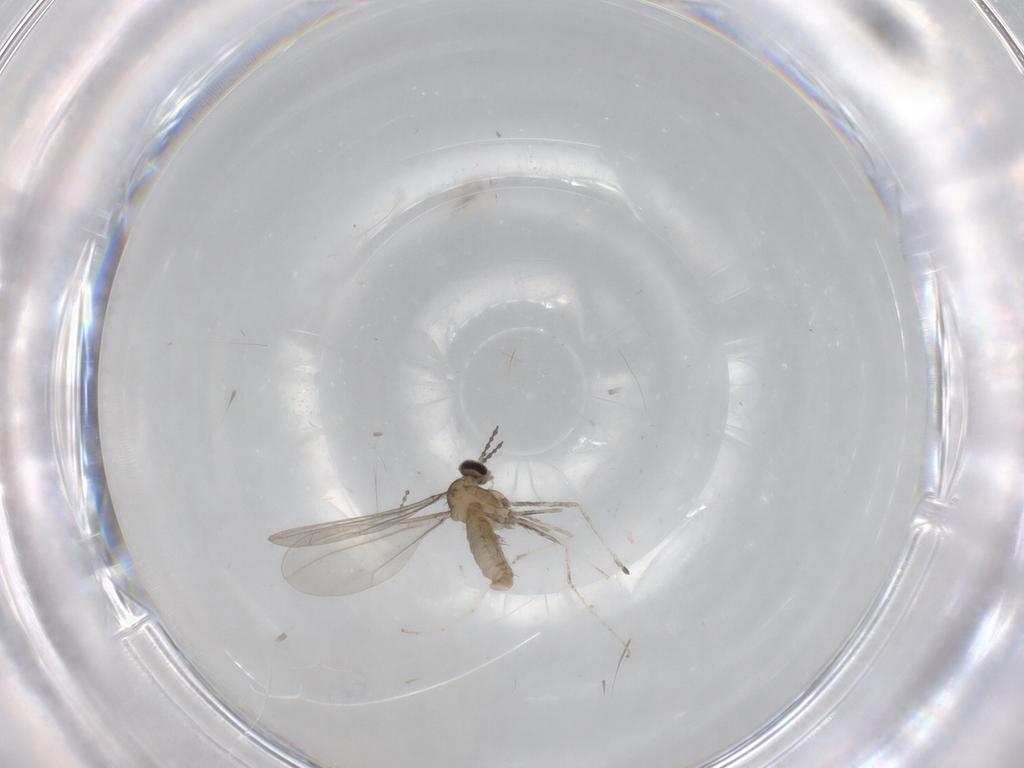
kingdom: Animalia
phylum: Arthropoda
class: Insecta
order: Diptera
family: Cecidomyiidae
